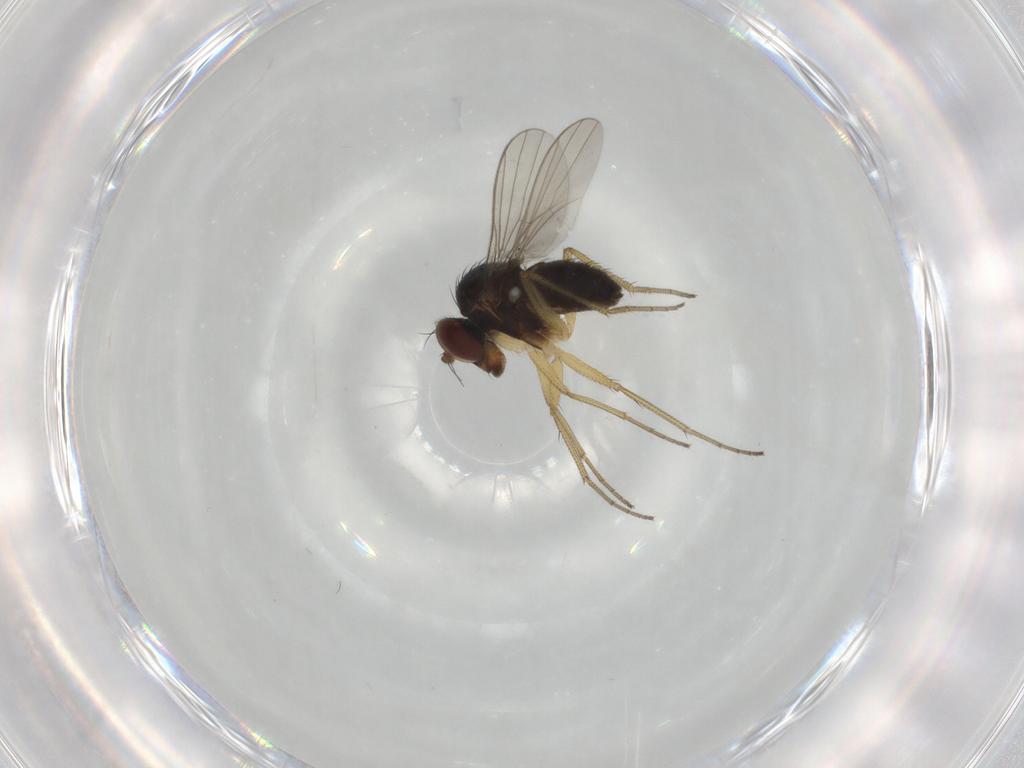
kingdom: Animalia
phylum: Arthropoda
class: Insecta
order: Diptera
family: Dolichopodidae
